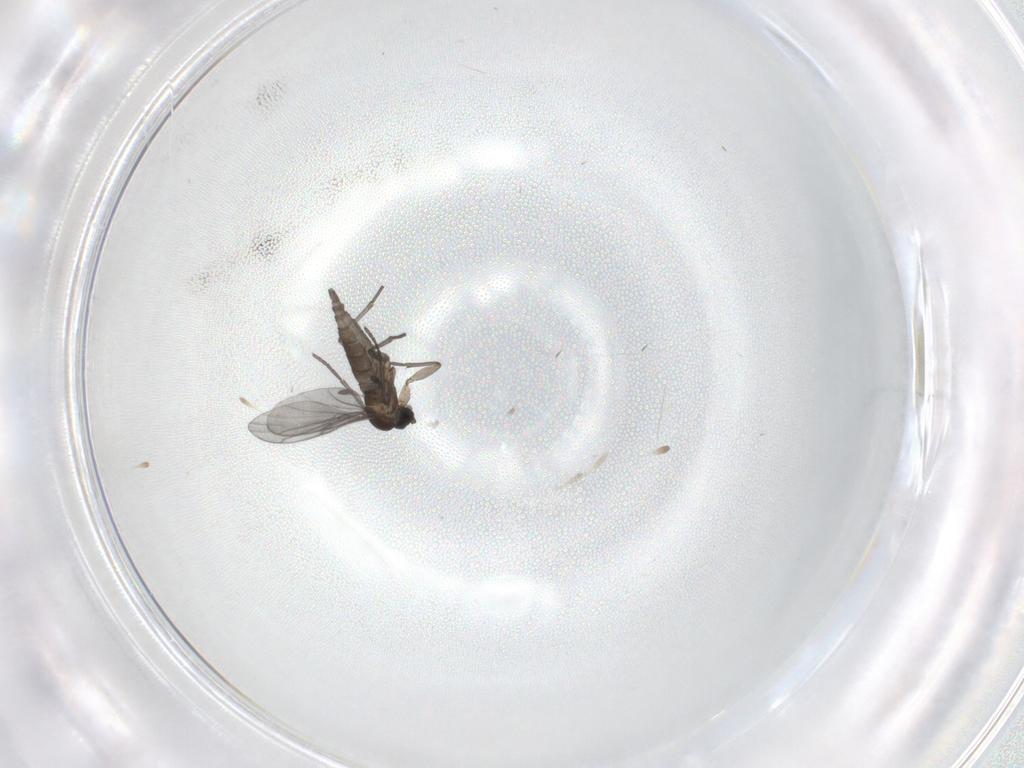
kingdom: Animalia
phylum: Arthropoda
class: Insecta
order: Diptera
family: Sciaridae
